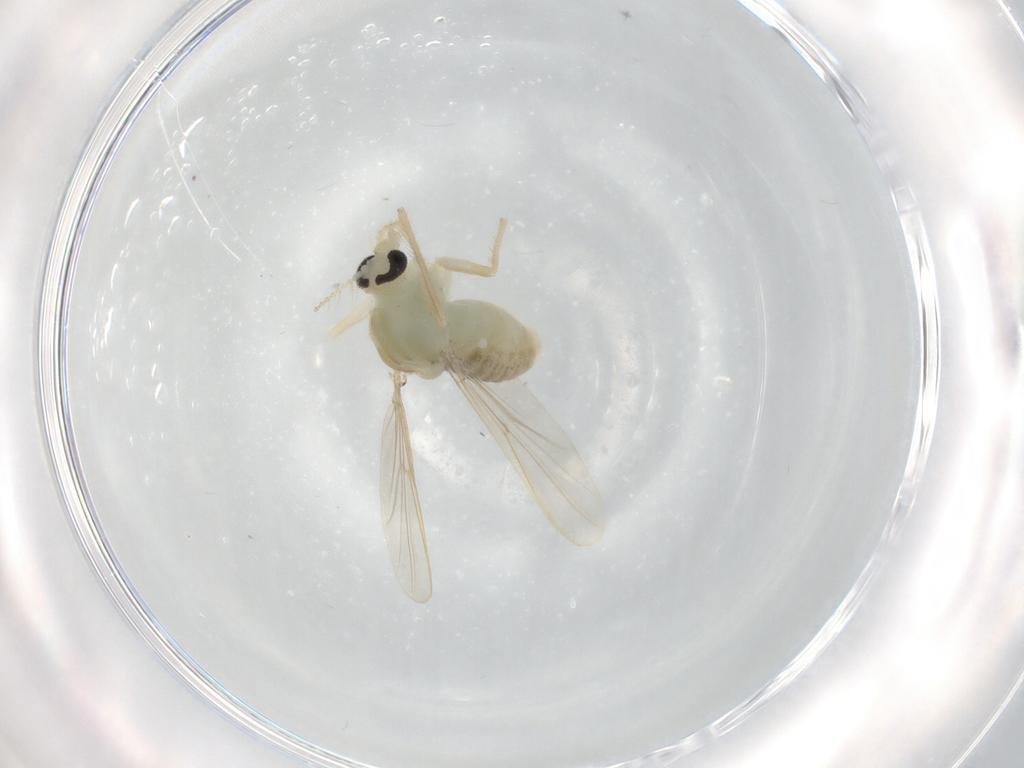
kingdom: Animalia
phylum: Arthropoda
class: Insecta
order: Diptera
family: Chironomidae
